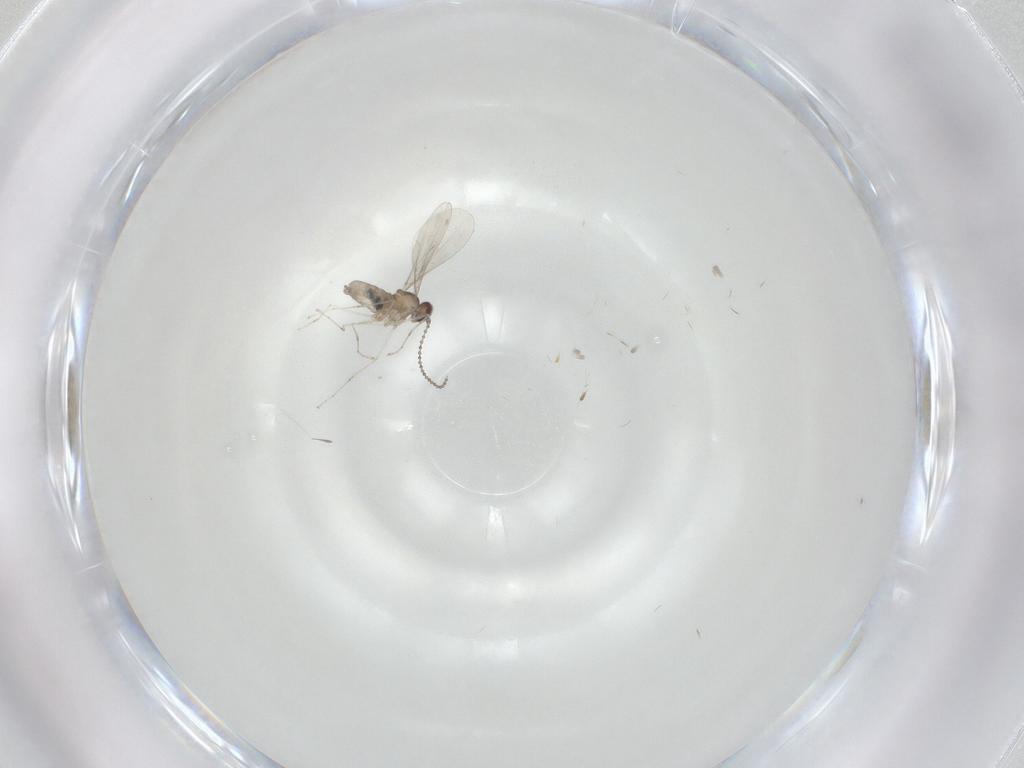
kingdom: Animalia
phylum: Arthropoda
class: Insecta
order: Diptera
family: Cecidomyiidae
